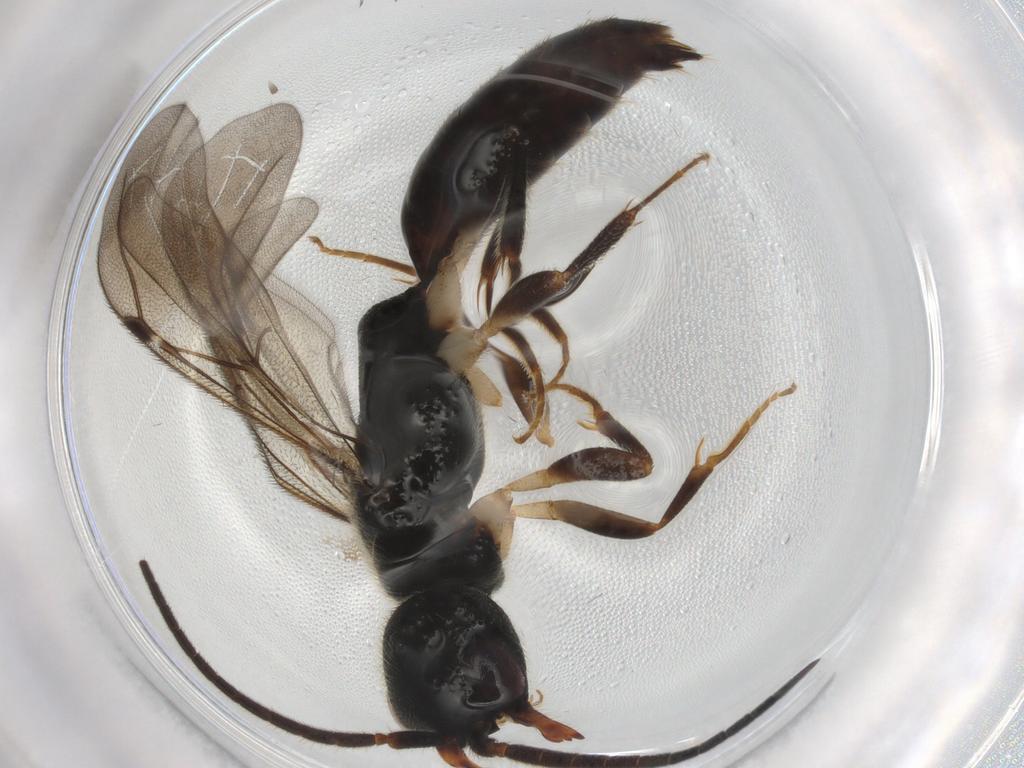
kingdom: Animalia
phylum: Arthropoda
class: Insecta
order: Hymenoptera
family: Bethylidae
